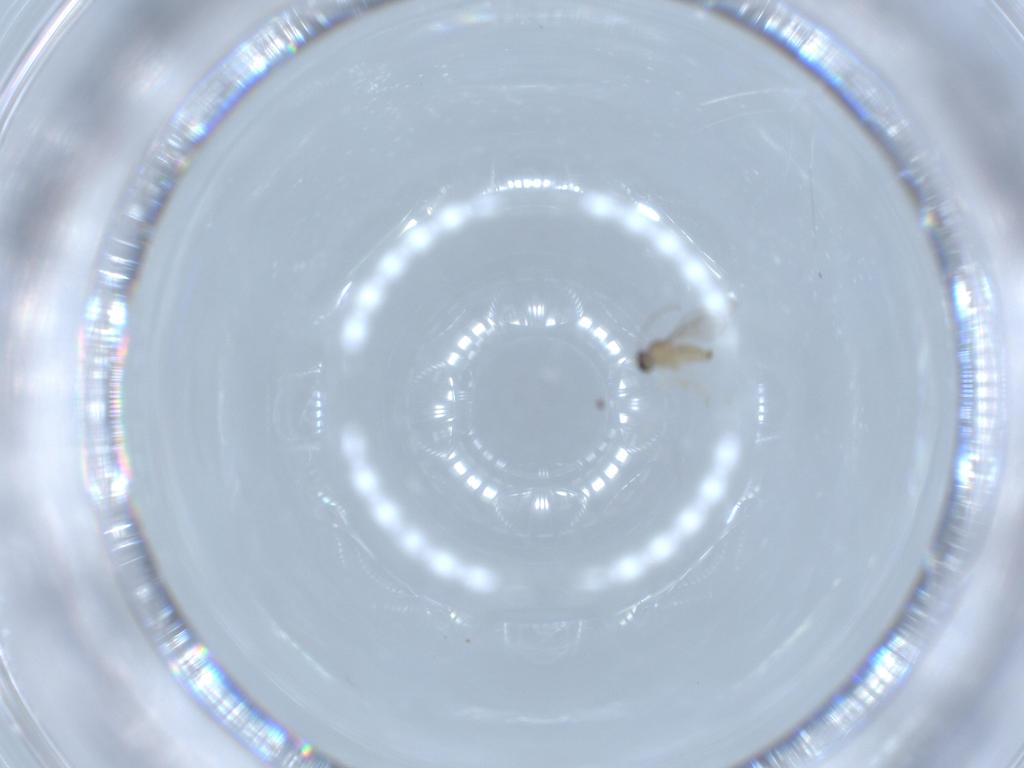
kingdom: Animalia
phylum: Arthropoda
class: Insecta
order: Diptera
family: Cecidomyiidae
